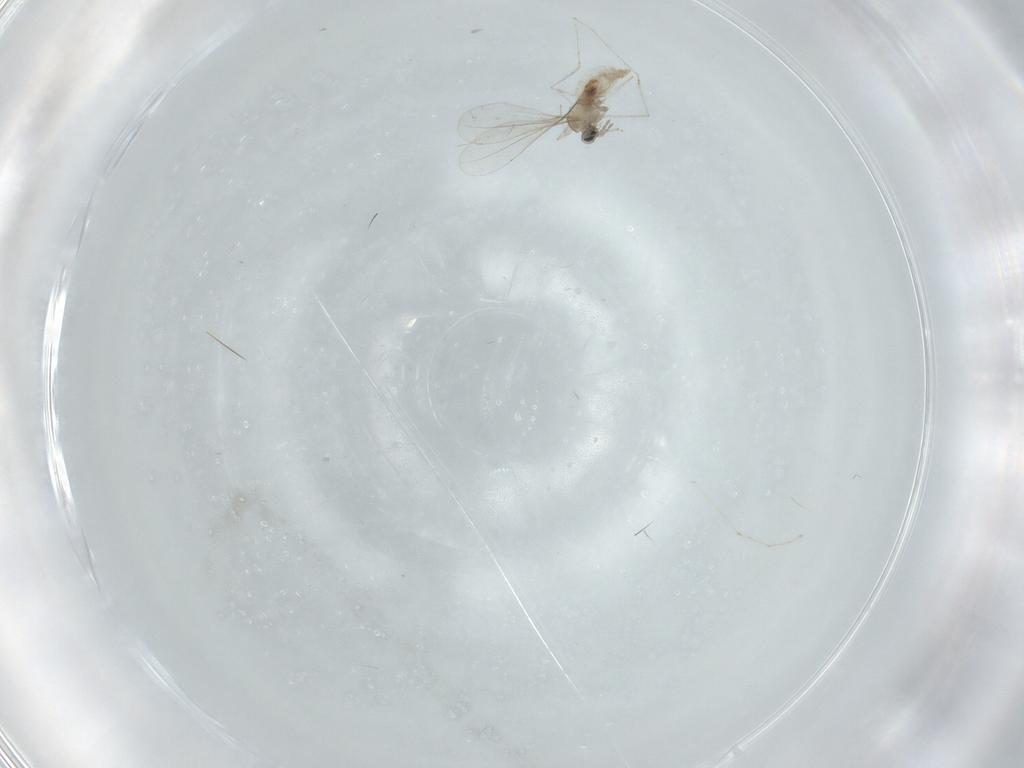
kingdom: Animalia
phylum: Arthropoda
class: Insecta
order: Diptera
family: Cecidomyiidae
